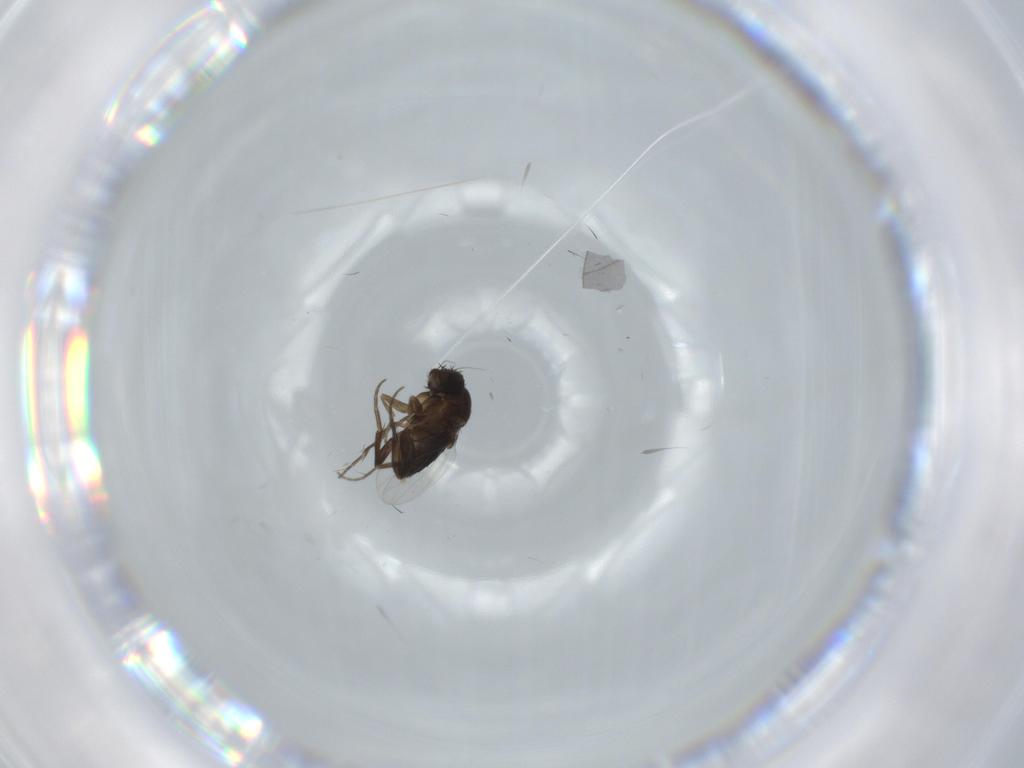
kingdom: Animalia
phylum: Arthropoda
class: Insecta
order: Diptera
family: Phoridae
